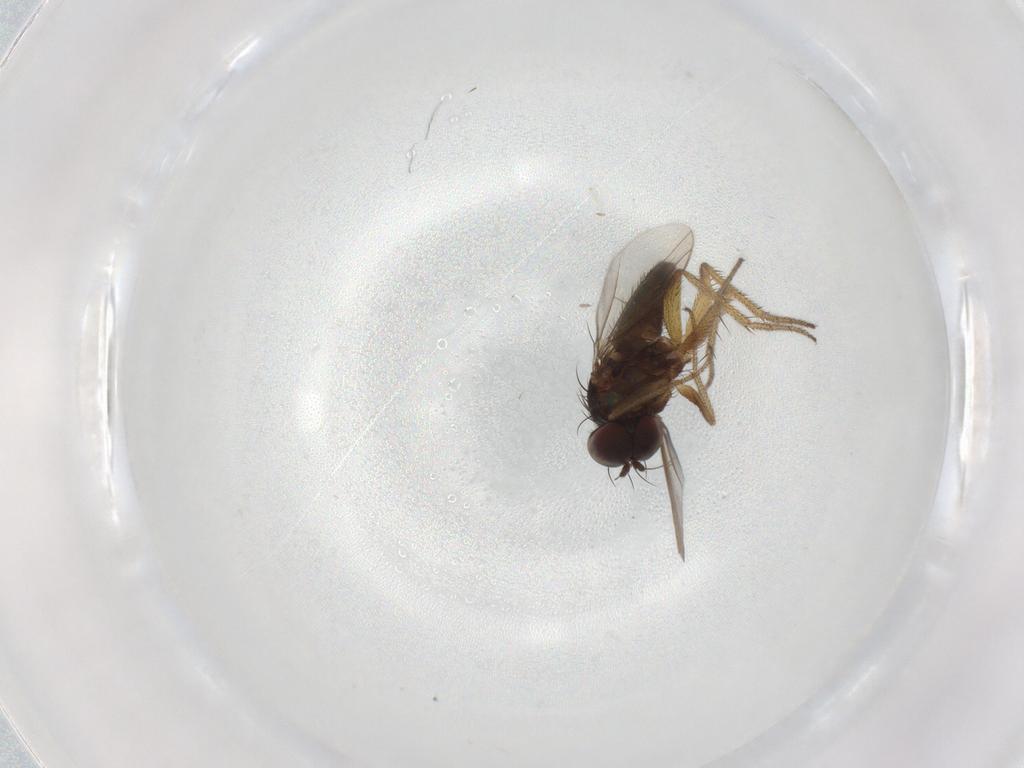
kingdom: Animalia
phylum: Arthropoda
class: Insecta
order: Diptera
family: Dolichopodidae
